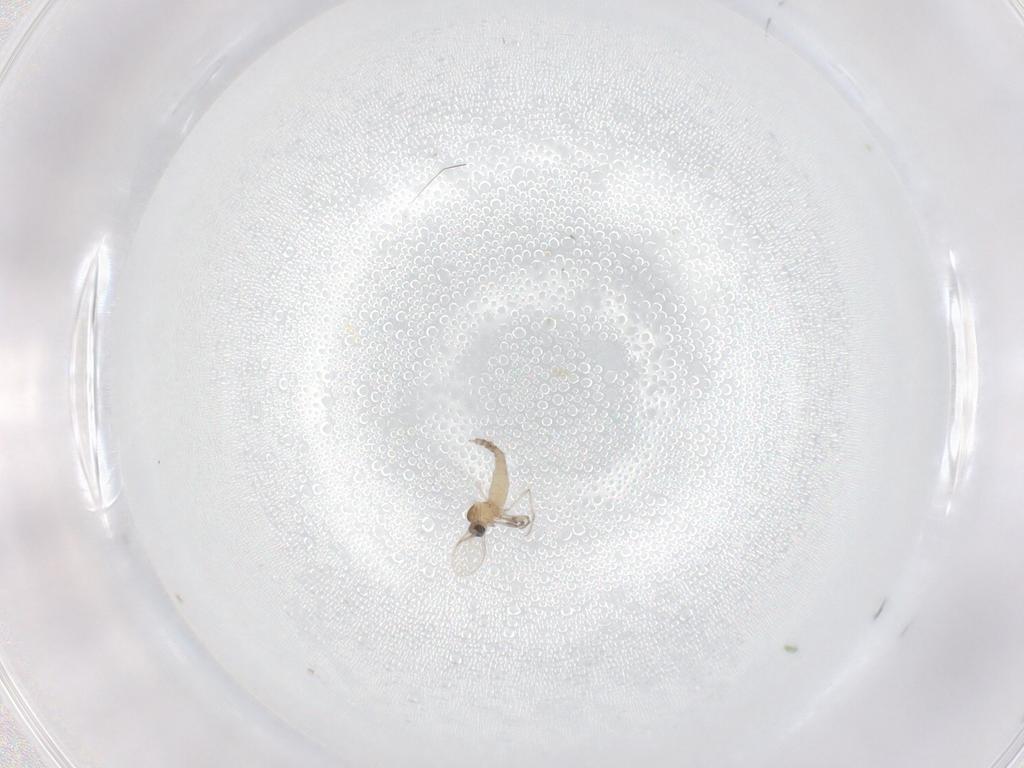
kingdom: Animalia
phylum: Arthropoda
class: Insecta
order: Diptera
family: Cecidomyiidae
